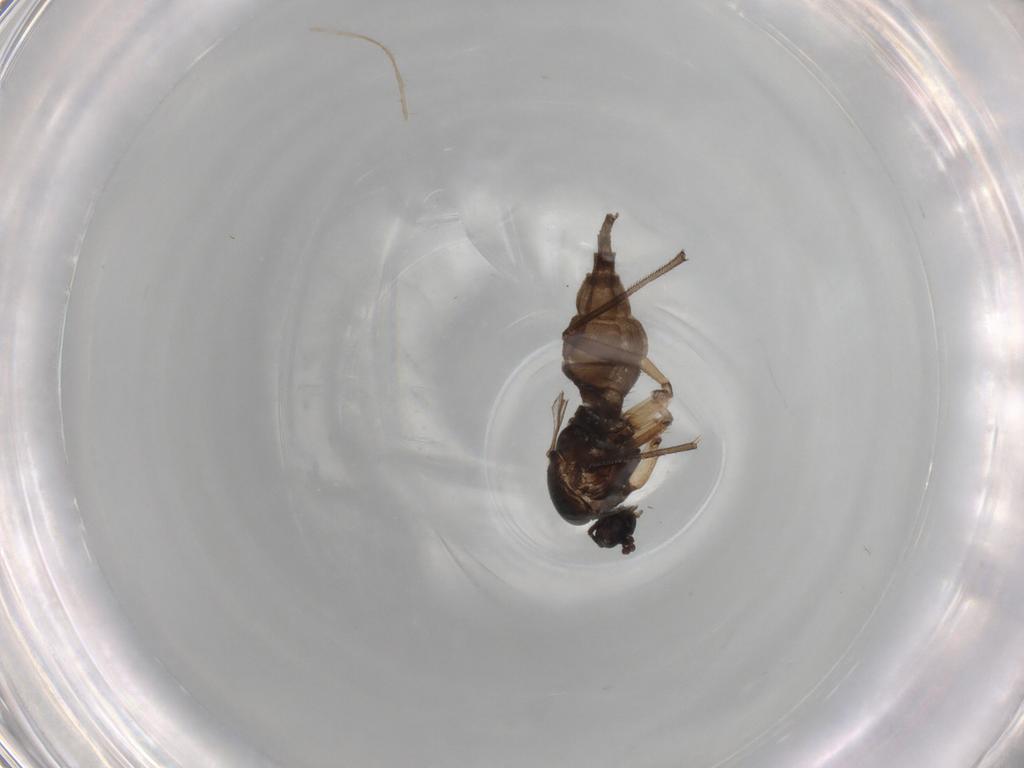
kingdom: Animalia
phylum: Arthropoda
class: Insecta
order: Diptera
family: Sciaridae
